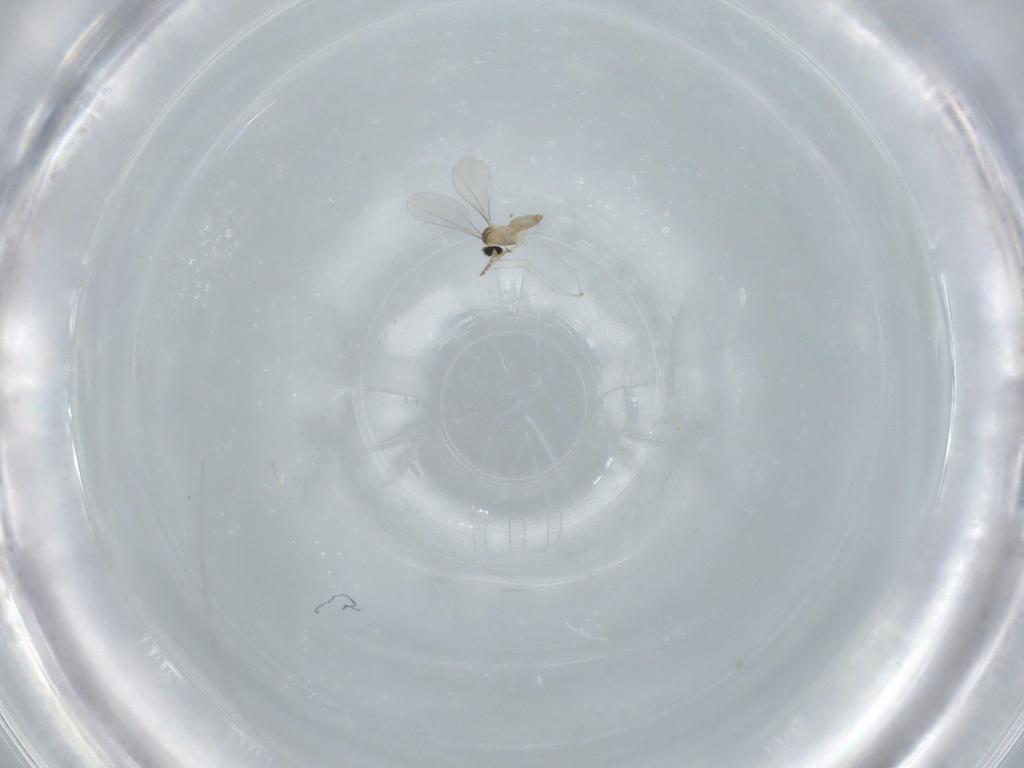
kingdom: Animalia
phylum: Arthropoda
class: Insecta
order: Diptera
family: Cecidomyiidae
